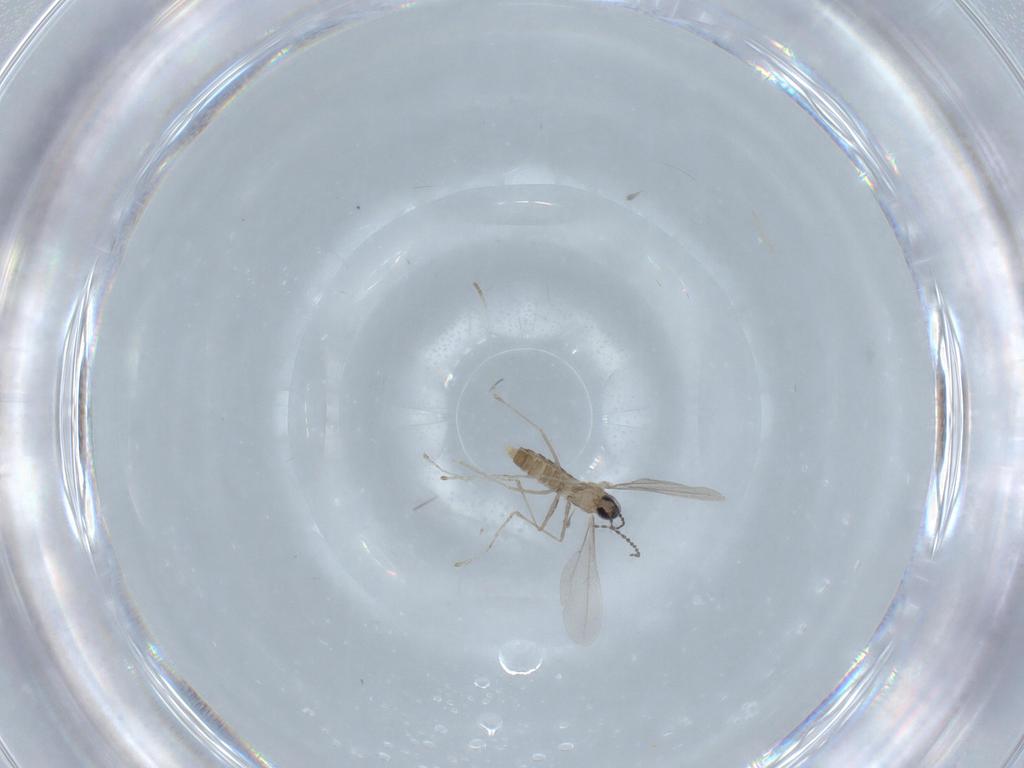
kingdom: Animalia
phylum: Arthropoda
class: Insecta
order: Diptera
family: Cecidomyiidae
